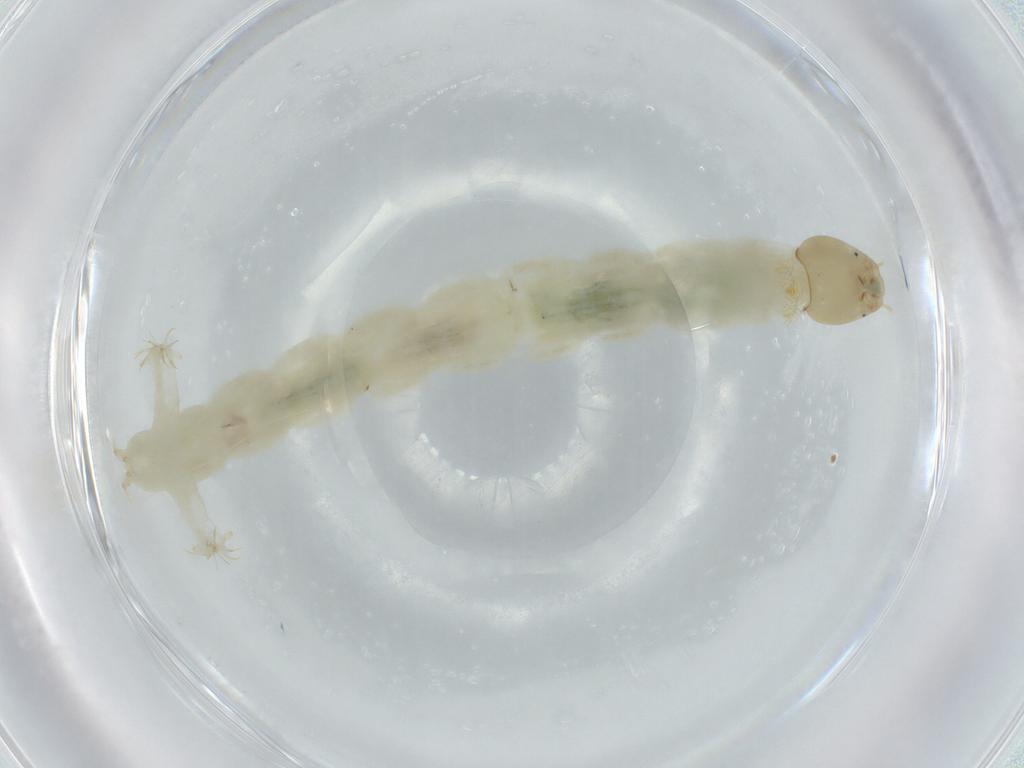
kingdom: Animalia
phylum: Arthropoda
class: Insecta
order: Diptera
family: Chironomidae
